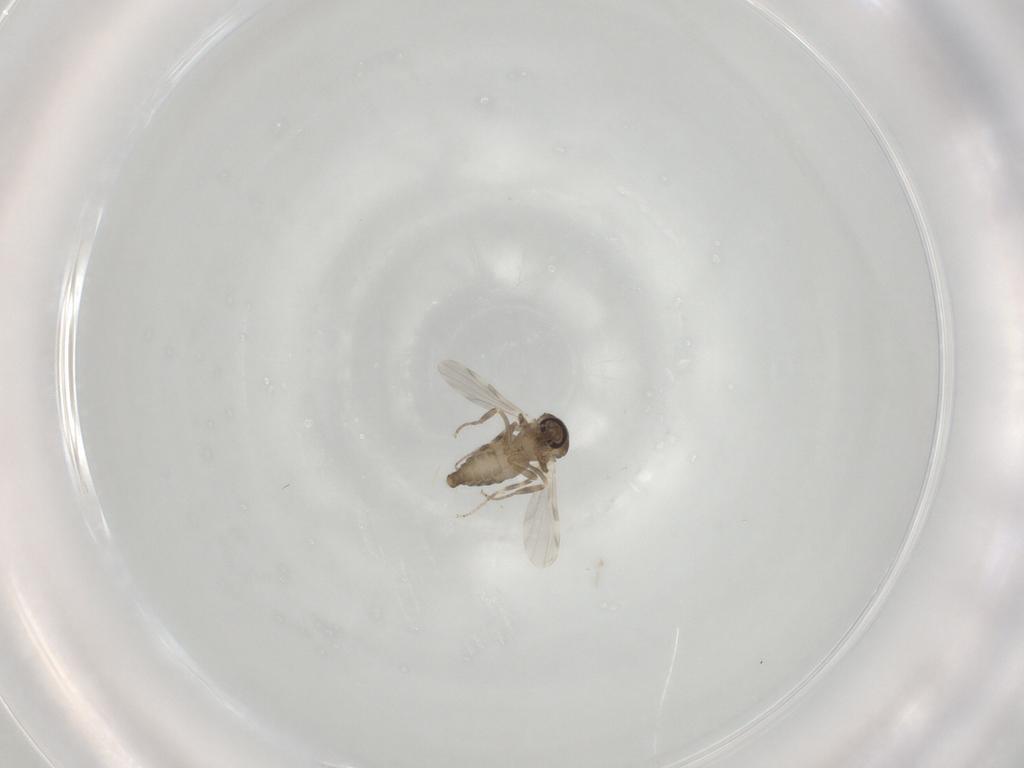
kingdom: Animalia
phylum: Arthropoda
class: Insecta
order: Diptera
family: Ceratopogonidae
